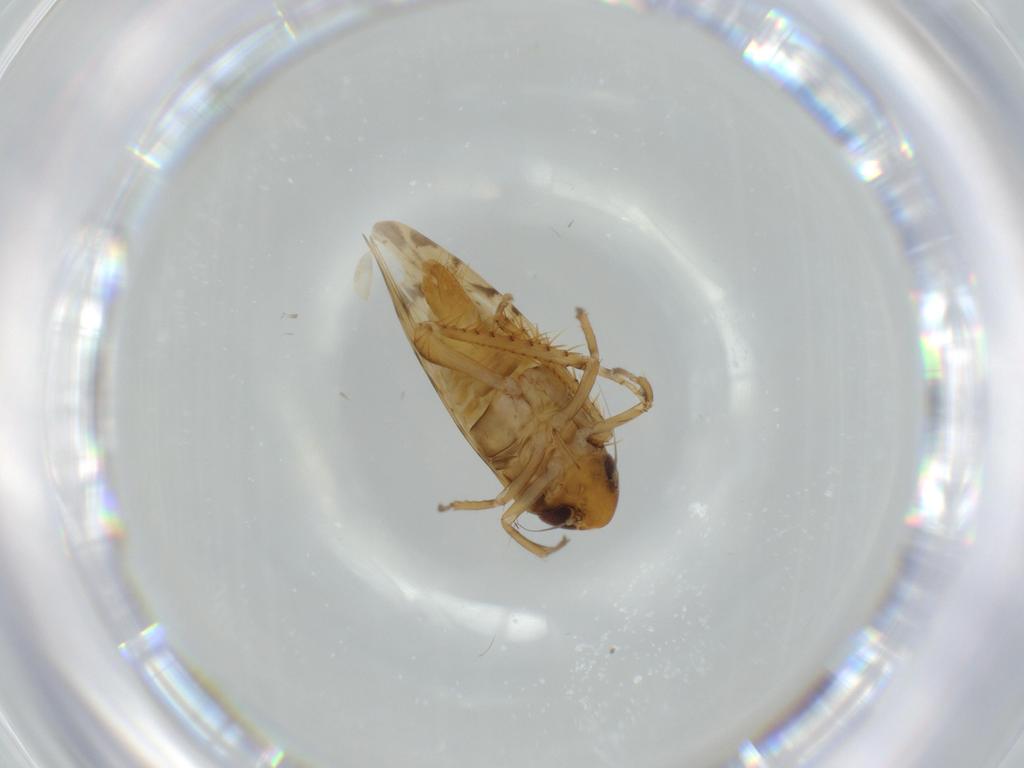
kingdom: Animalia
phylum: Arthropoda
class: Insecta
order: Hemiptera
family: Cicadellidae
